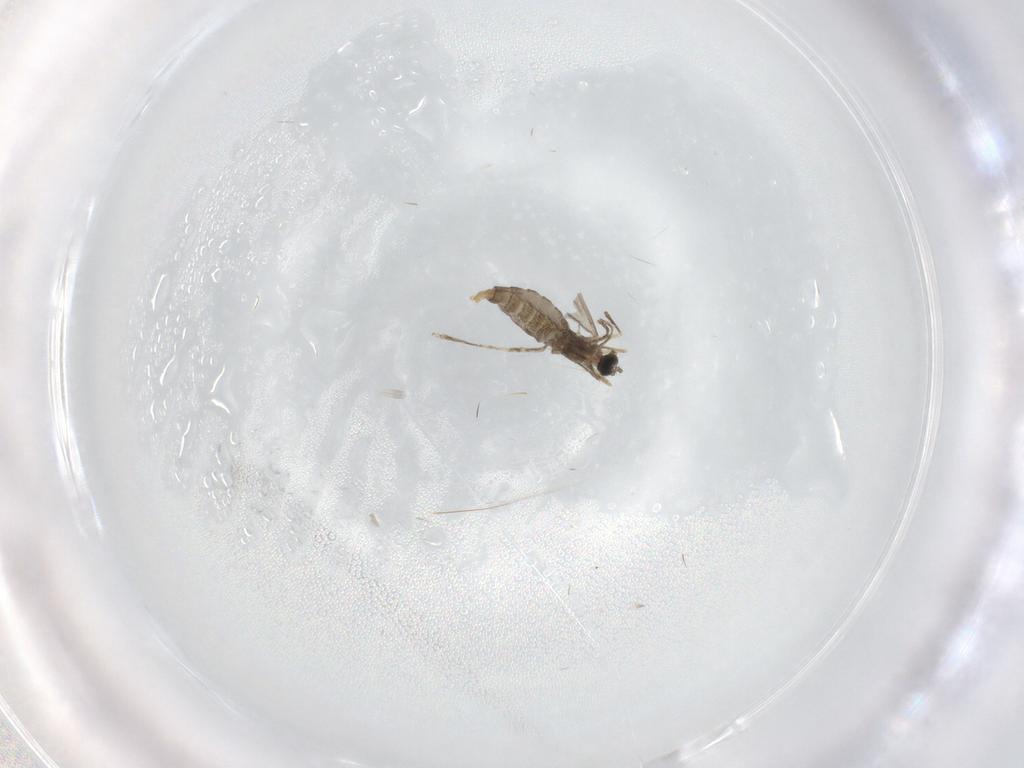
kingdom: Animalia
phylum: Arthropoda
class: Insecta
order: Diptera
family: Cecidomyiidae
